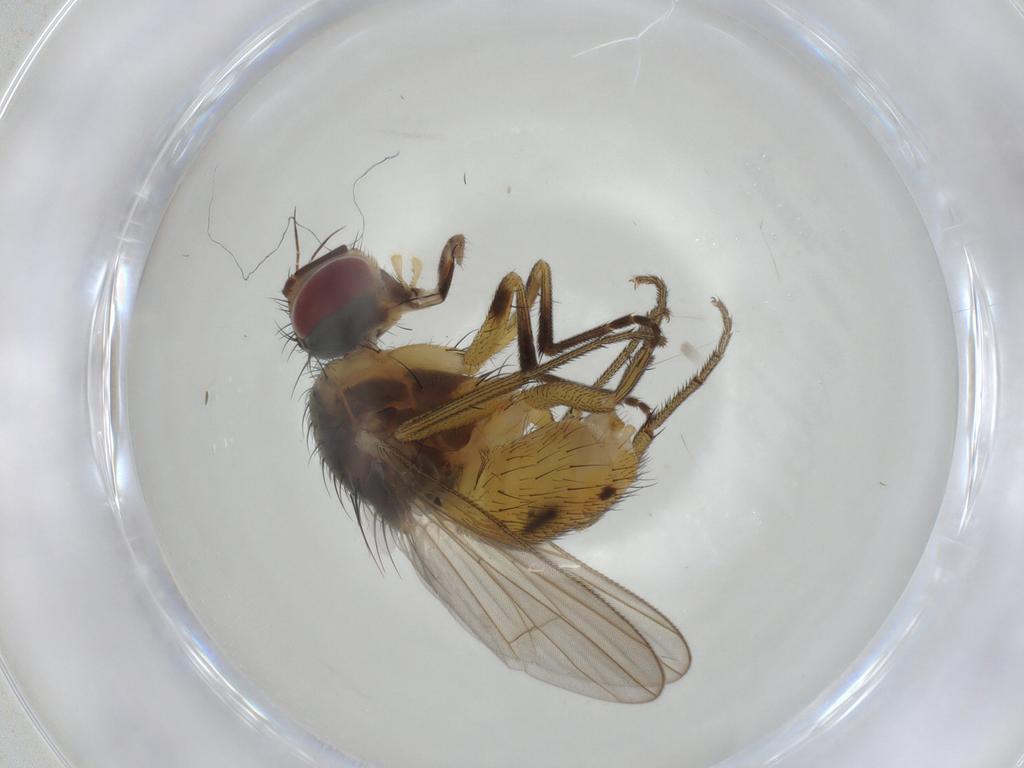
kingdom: Animalia
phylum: Arthropoda
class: Insecta
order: Diptera
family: Muscidae
